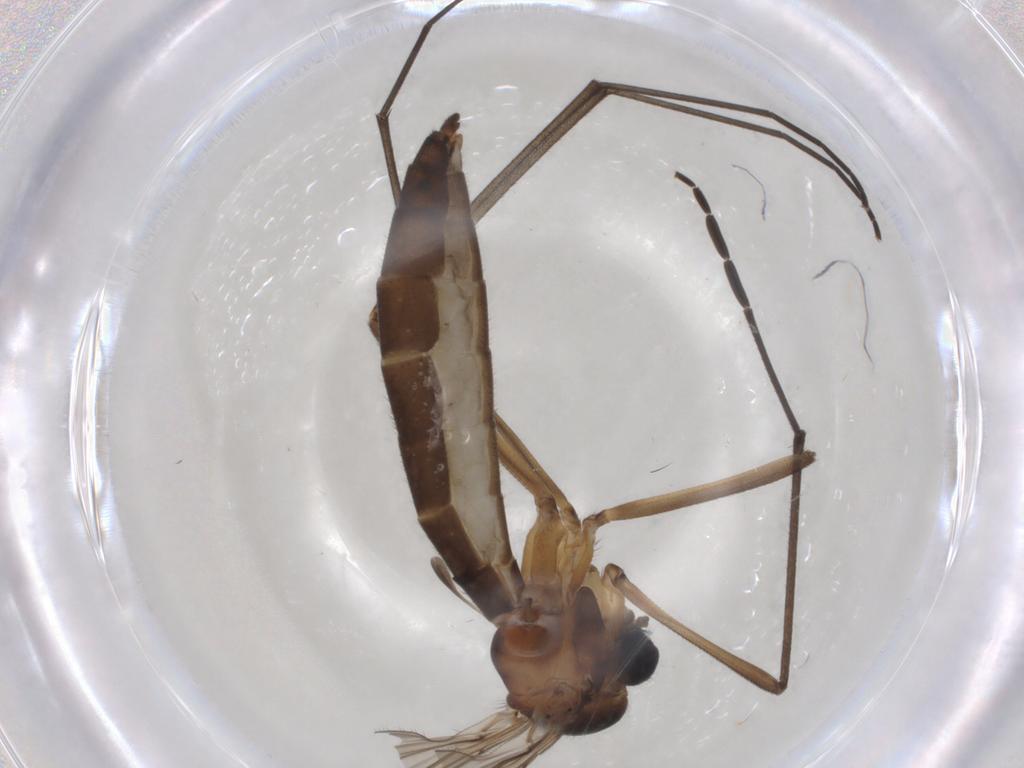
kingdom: Animalia
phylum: Arthropoda
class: Insecta
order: Diptera
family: Bolitophilidae
